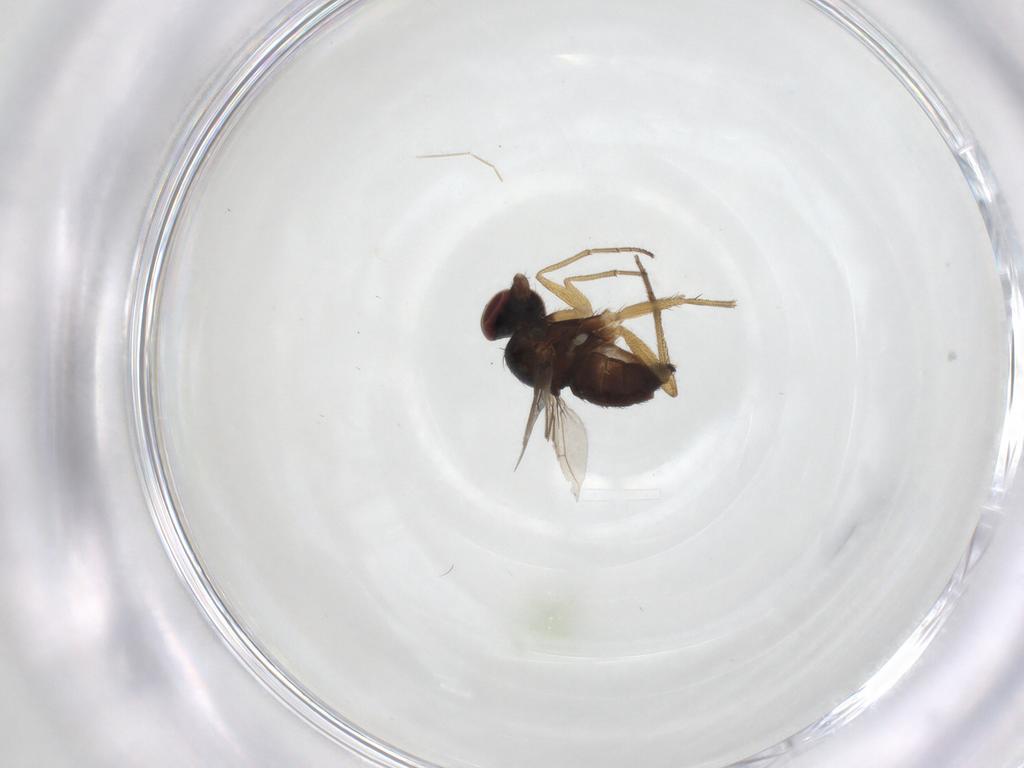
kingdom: Animalia
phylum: Arthropoda
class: Insecta
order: Diptera
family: Dolichopodidae
